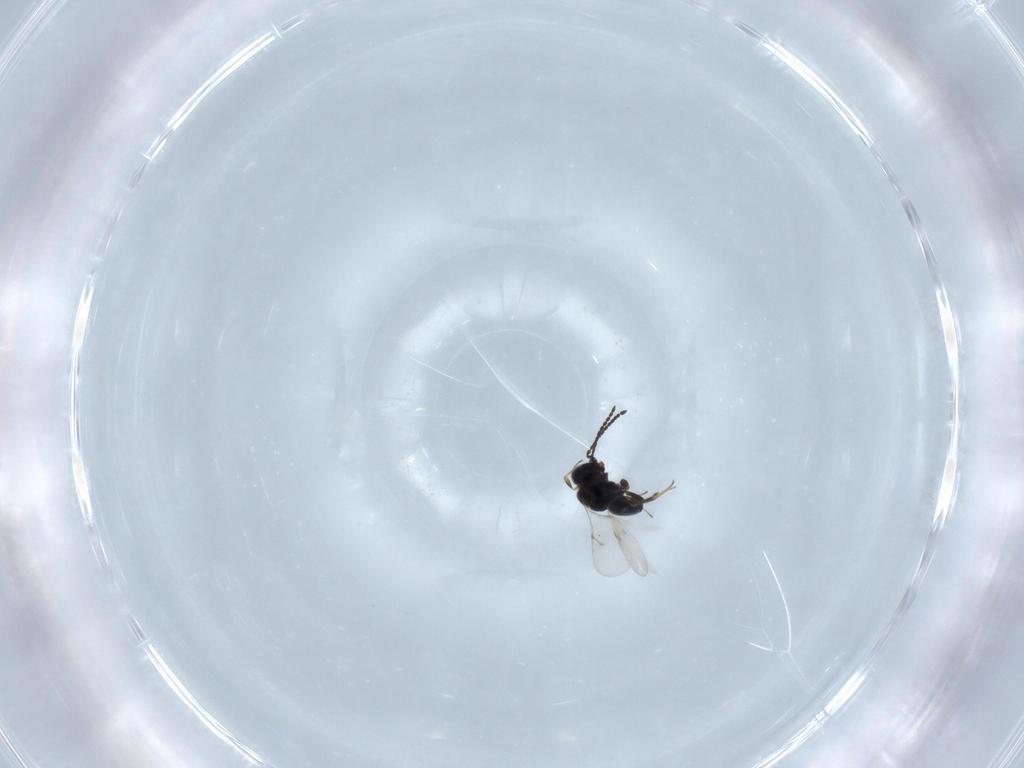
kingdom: Animalia
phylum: Arthropoda
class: Insecta
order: Hymenoptera
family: Scelionidae
